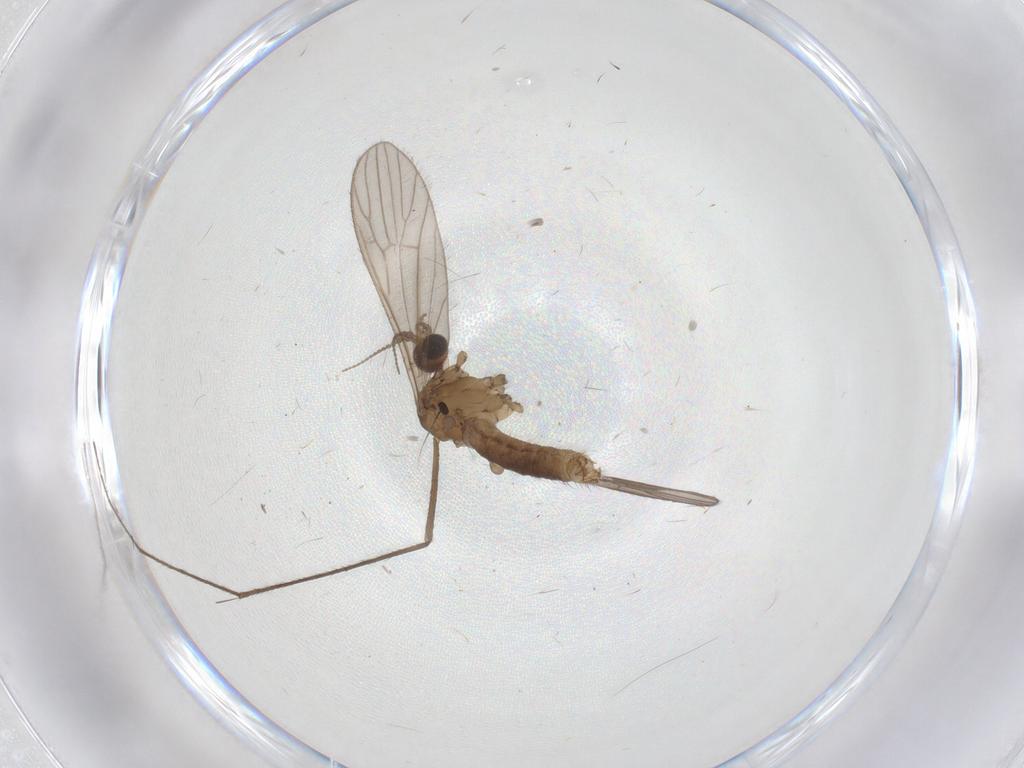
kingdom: Animalia
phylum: Arthropoda
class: Insecta
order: Diptera
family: Limoniidae
